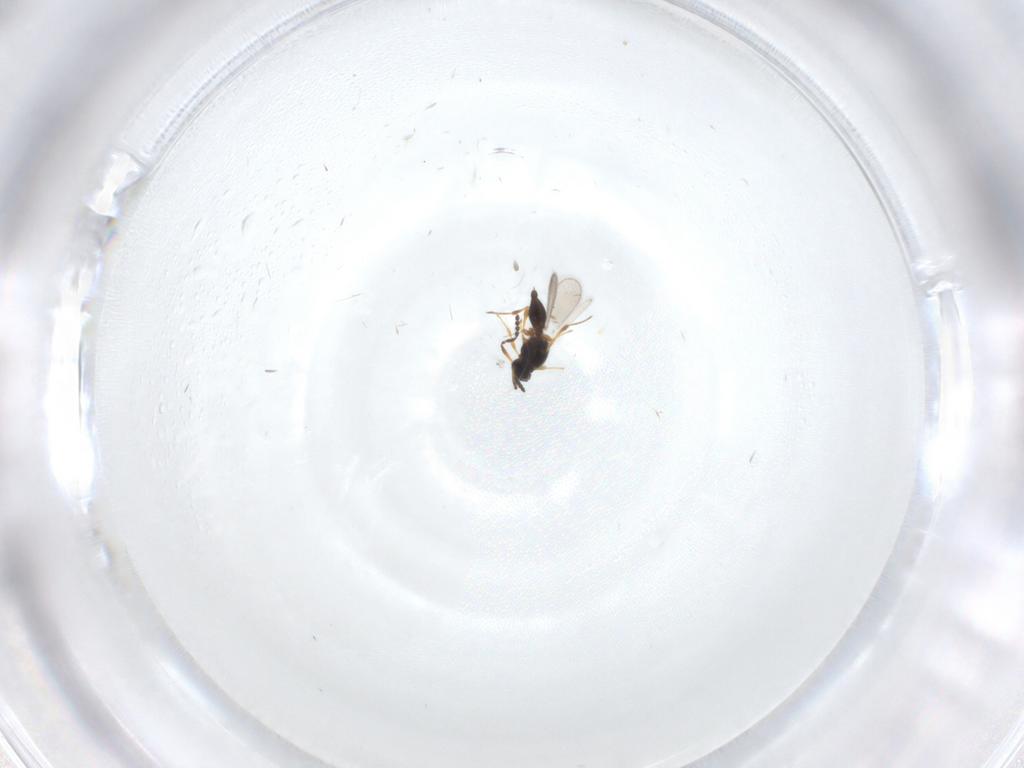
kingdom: Animalia
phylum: Arthropoda
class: Insecta
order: Hymenoptera
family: Platygastridae
